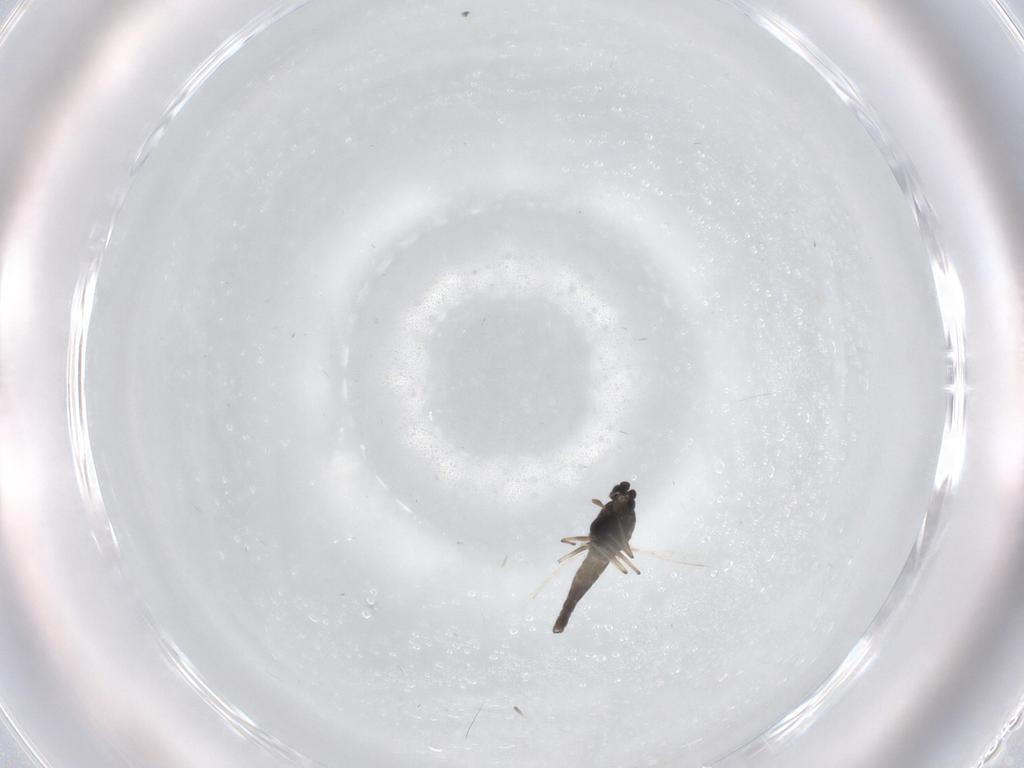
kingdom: Animalia
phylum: Arthropoda
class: Insecta
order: Diptera
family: Chironomidae
